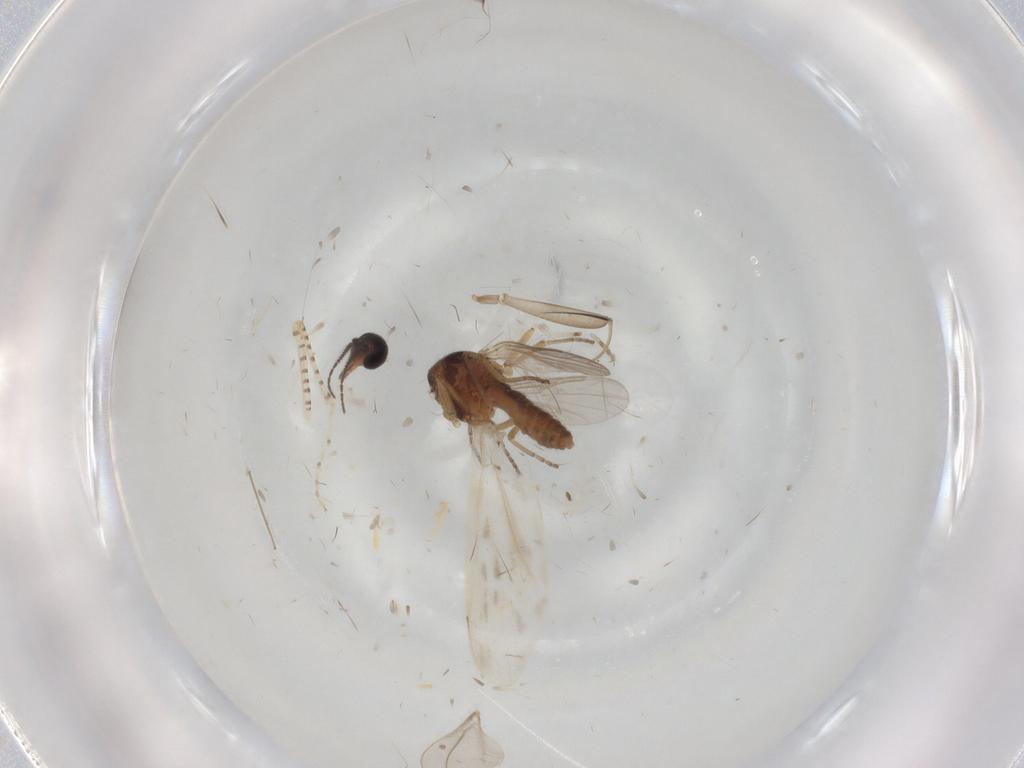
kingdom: Animalia
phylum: Arthropoda
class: Insecta
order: Diptera
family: Ceratopogonidae
